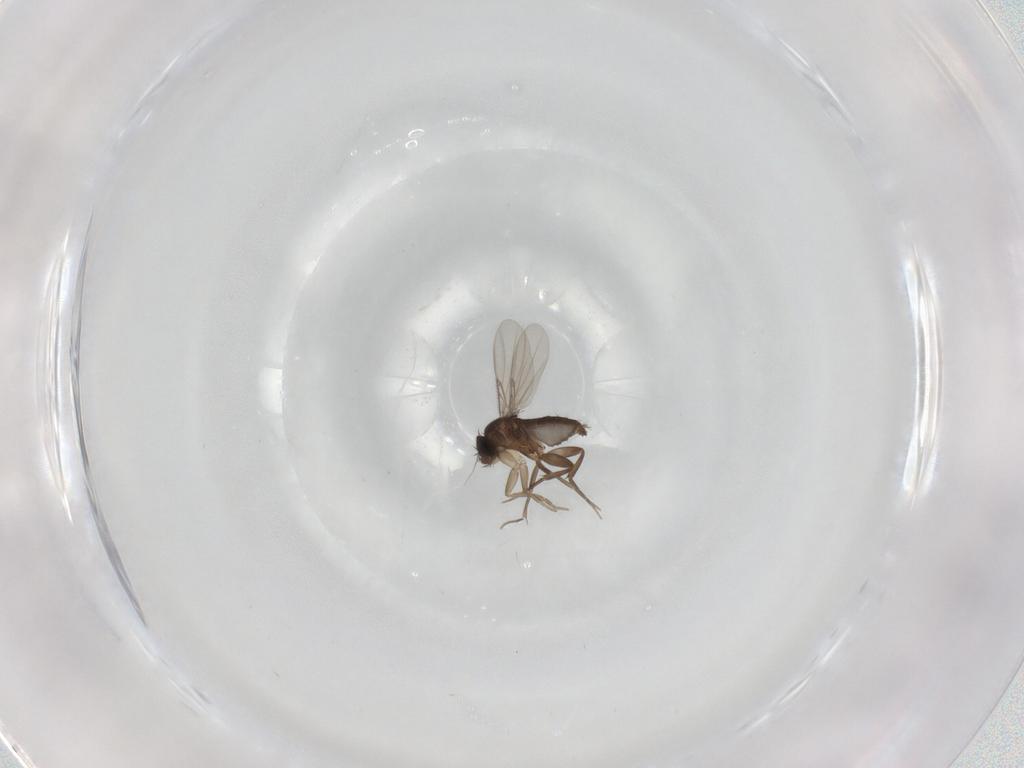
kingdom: Animalia
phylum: Arthropoda
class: Insecta
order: Diptera
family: Phoridae
